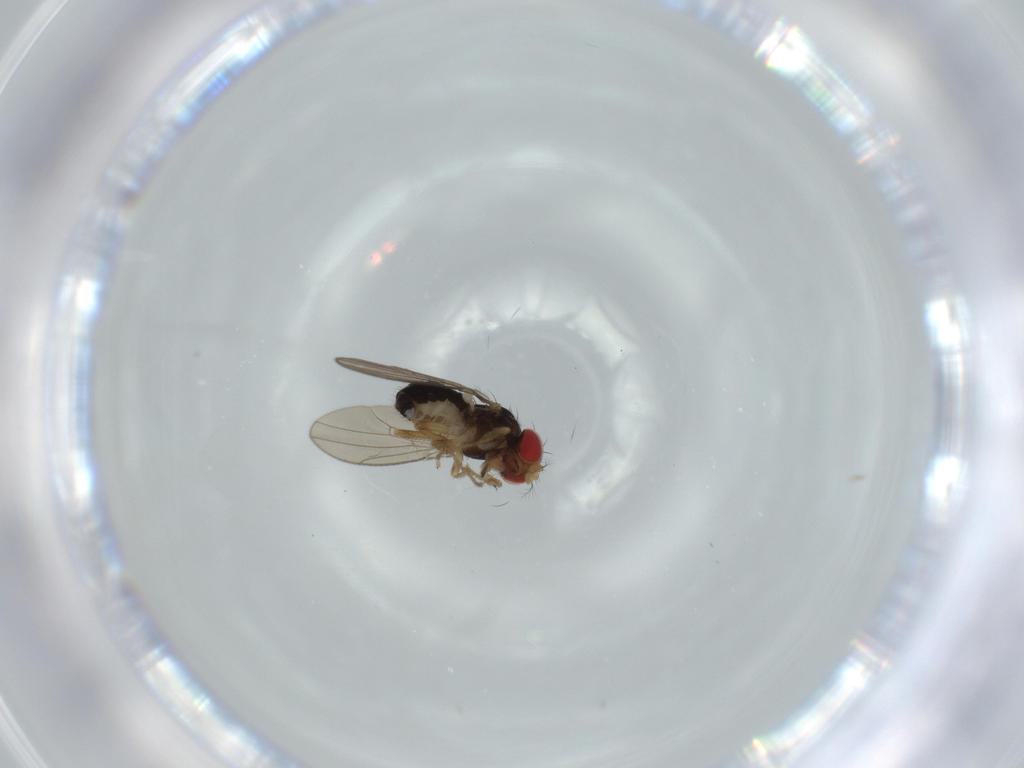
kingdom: Animalia
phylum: Arthropoda
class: Insecta
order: Diptera
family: Drosophilidae
